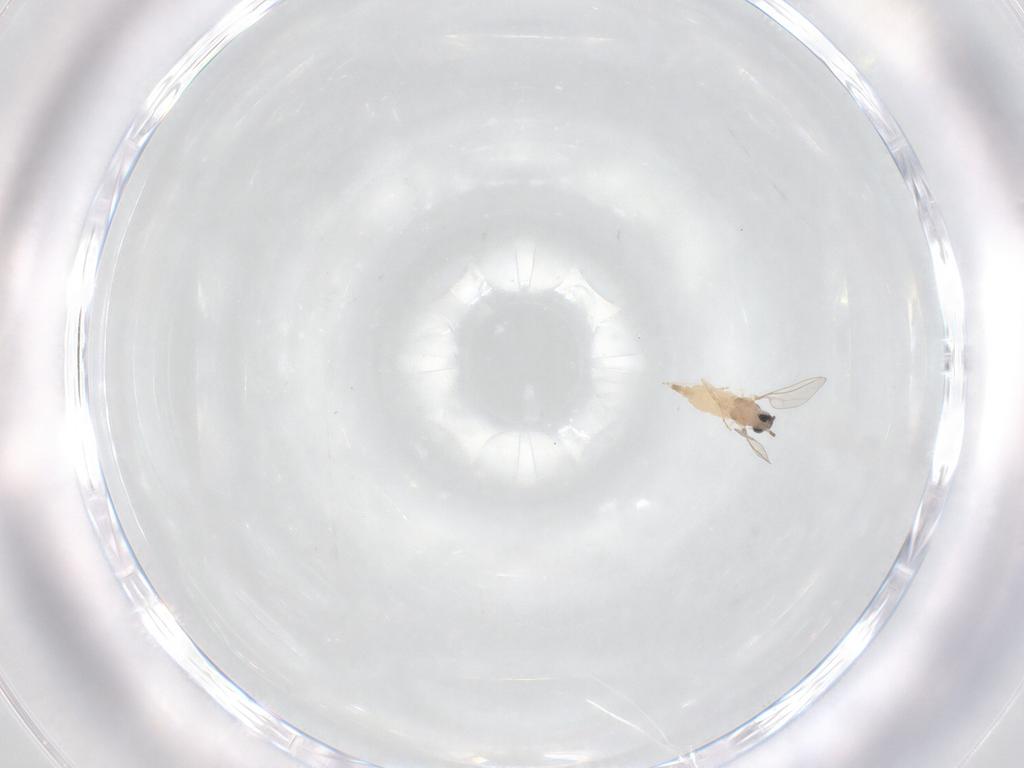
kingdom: Animalia
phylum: Arthropoda
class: Insecta
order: Diptera
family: Cecidomyiidae
